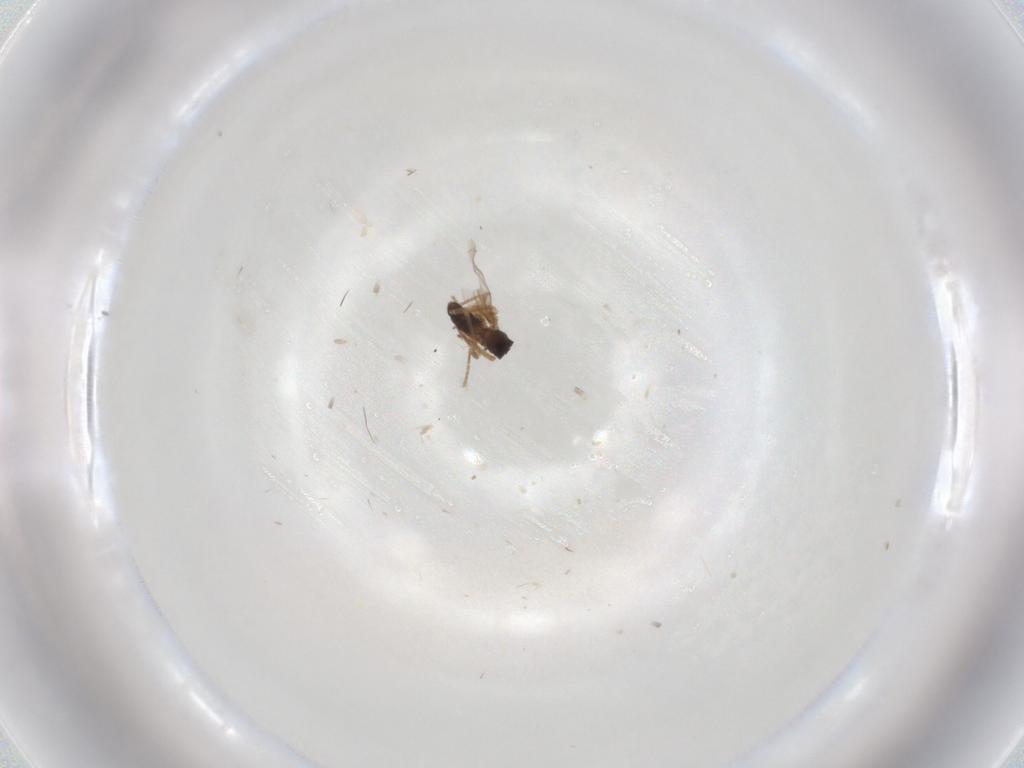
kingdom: Animalia
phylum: Arthropoda
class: Insecta
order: Diptera
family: Glossinidae
